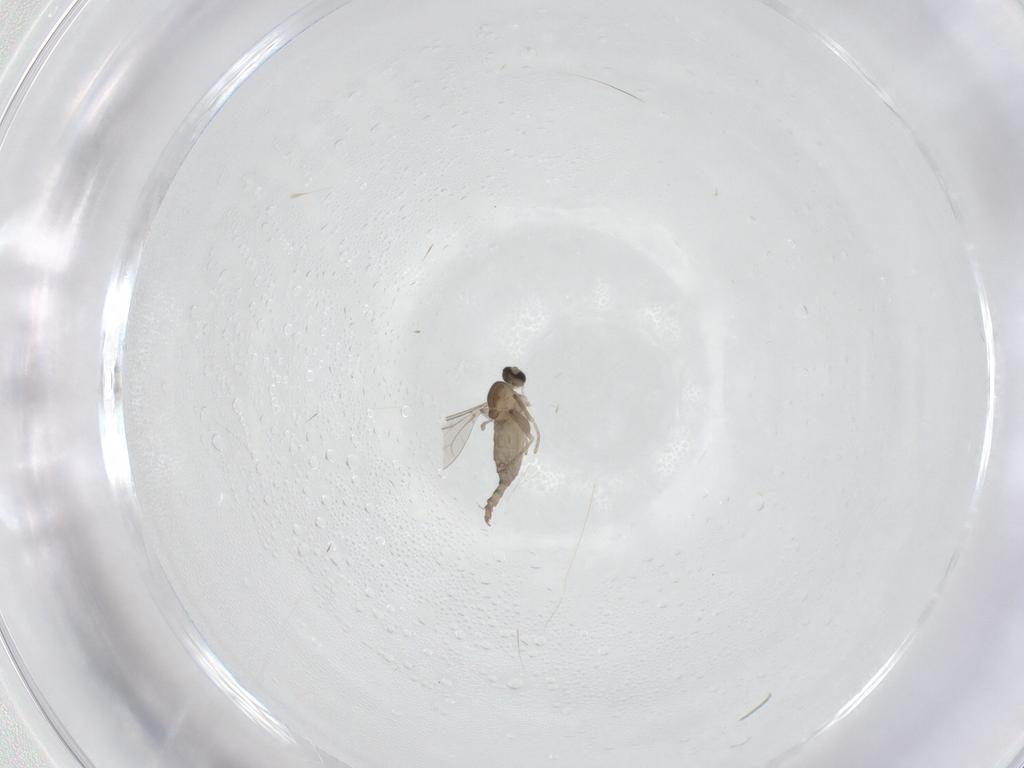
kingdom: Animalia
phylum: Arthropoda
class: Insecta
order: Diptera
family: Cecidomyiidae
